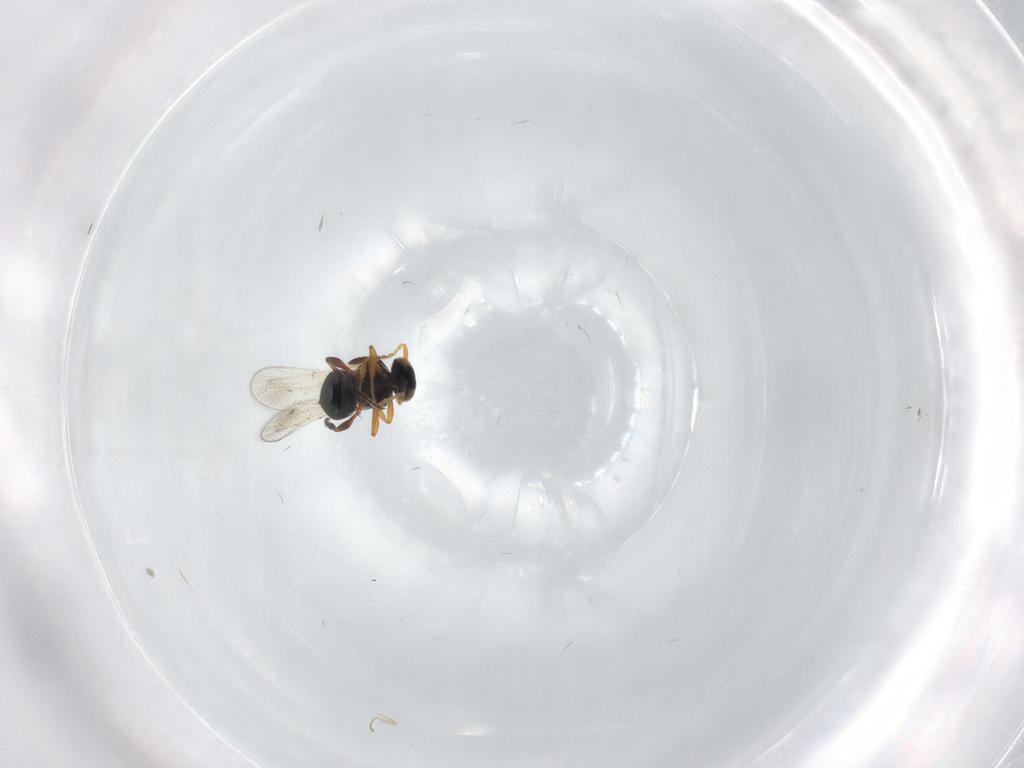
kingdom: Animalia
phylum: Arthropoda
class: Insecta
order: Hymenoptera
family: Platygastridae
